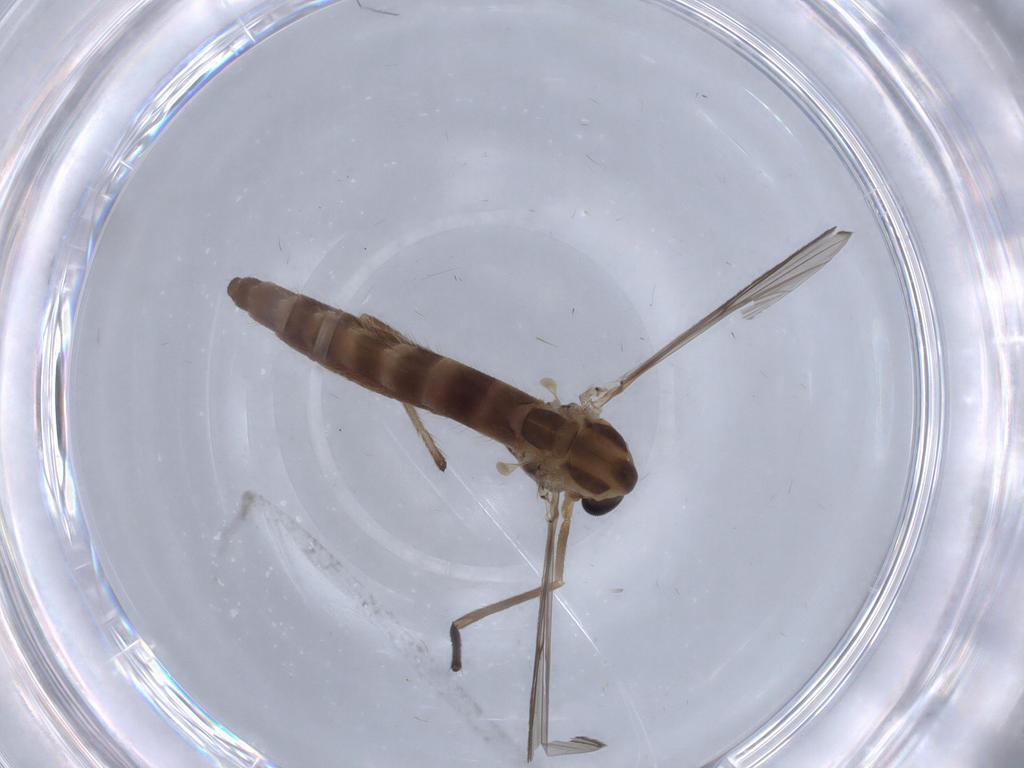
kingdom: Animalia
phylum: Arthropoda
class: Insecta
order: Diptera
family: Chironomidae
